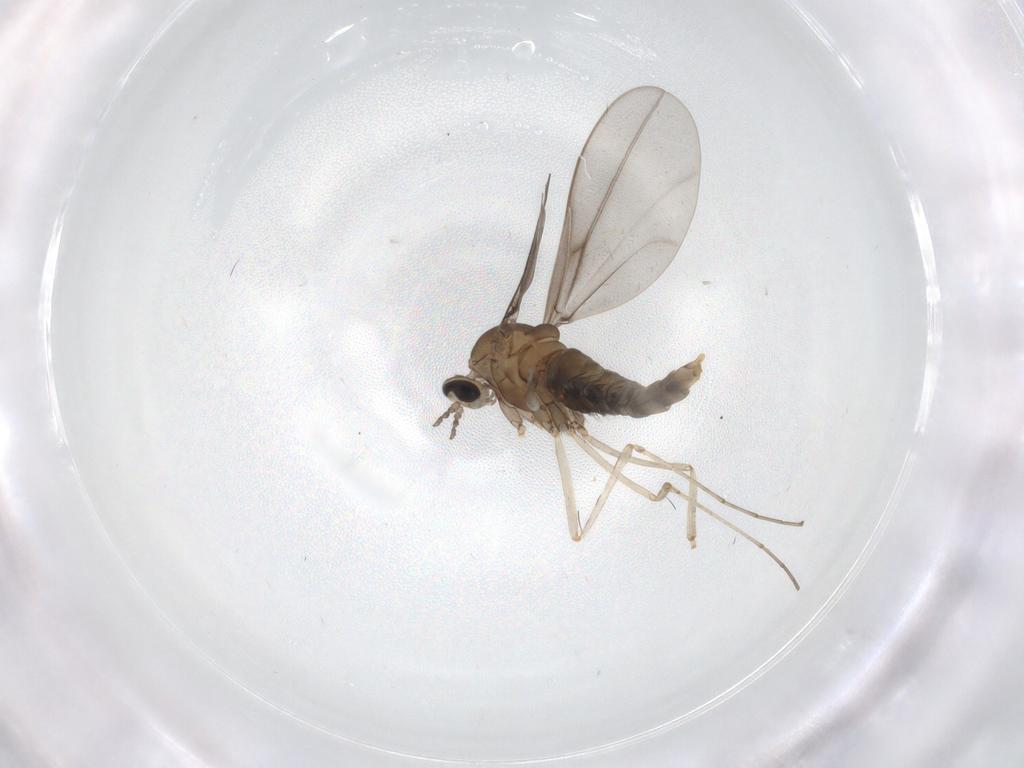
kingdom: Animalia
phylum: Arthropoda
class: Insecta
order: Diptera
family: Cecidomyiidae
